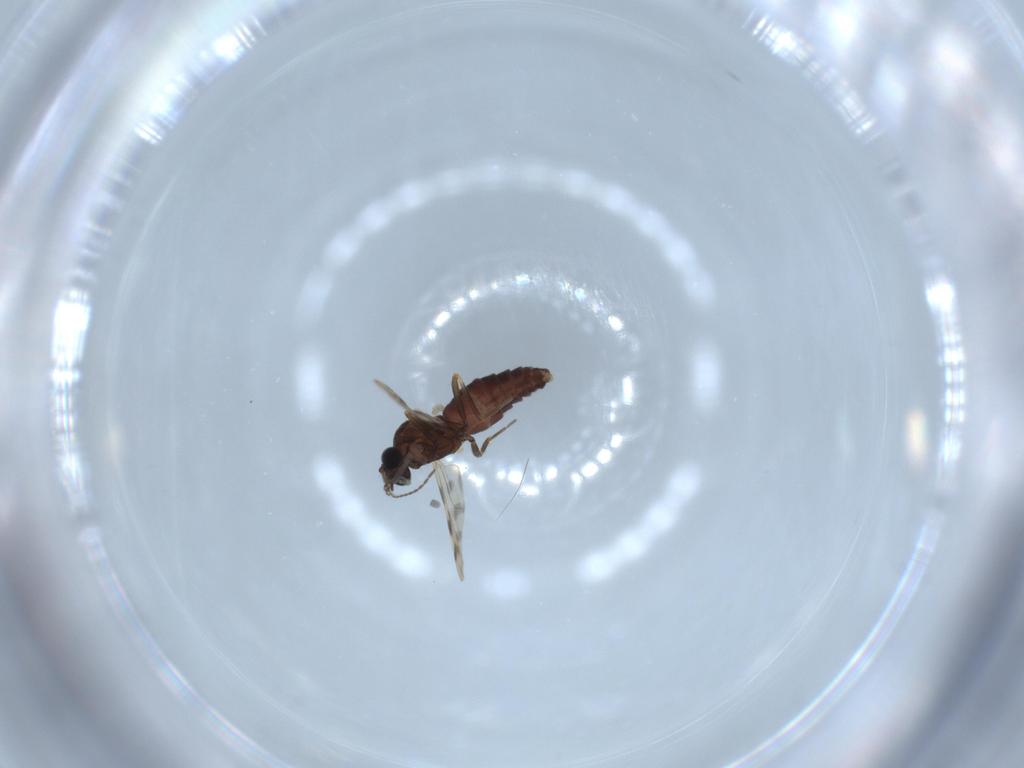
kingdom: Animalia
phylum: Arthropoda
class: Insecta
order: Diptera
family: Ceratopogonidae
